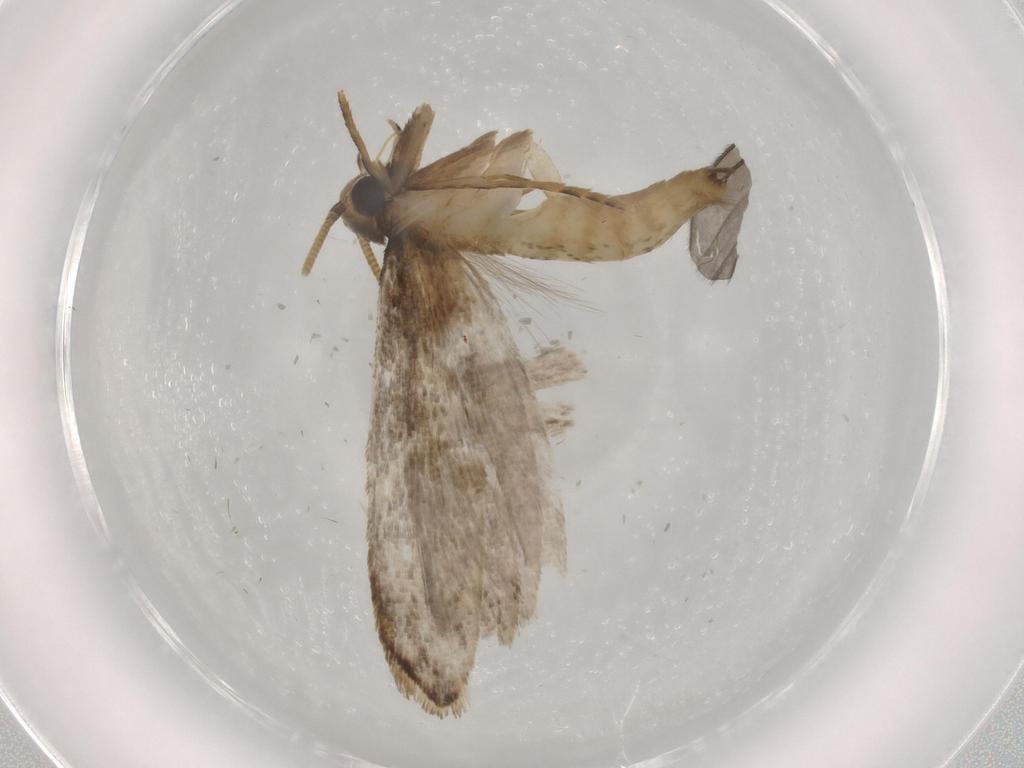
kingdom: Animalia
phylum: Arthropoda
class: Insecta
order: Lepidoptera
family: Tineidae
